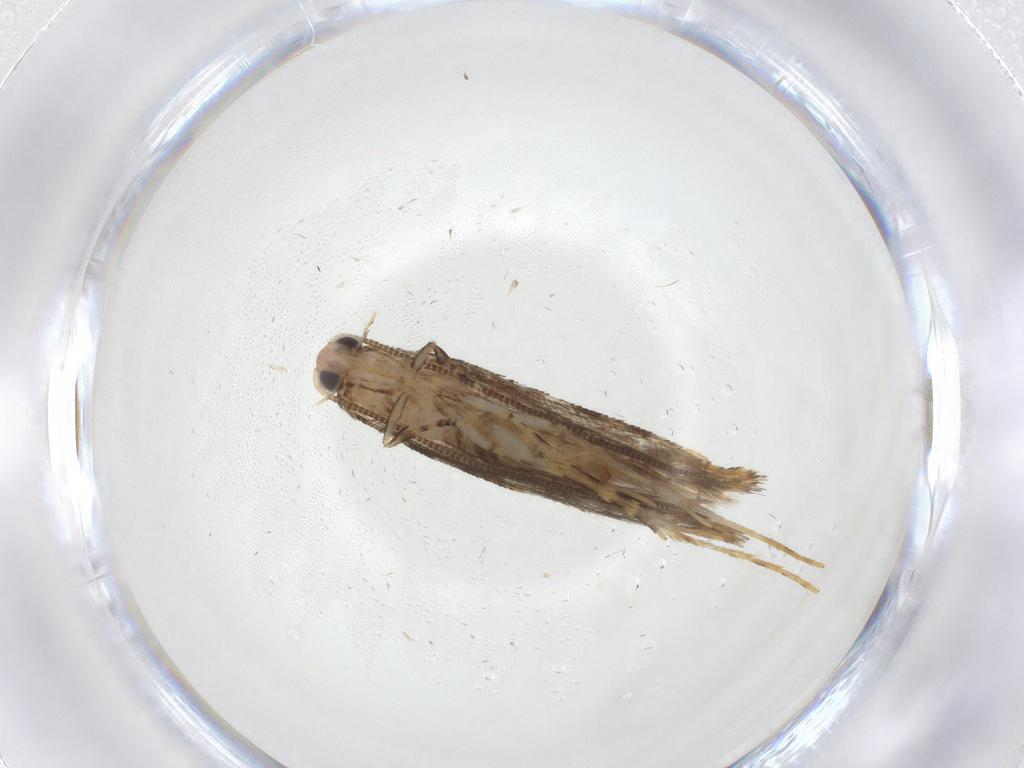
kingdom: Animalia
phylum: Arthropoda
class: Insecta
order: Lepidoptera
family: Tineidae
